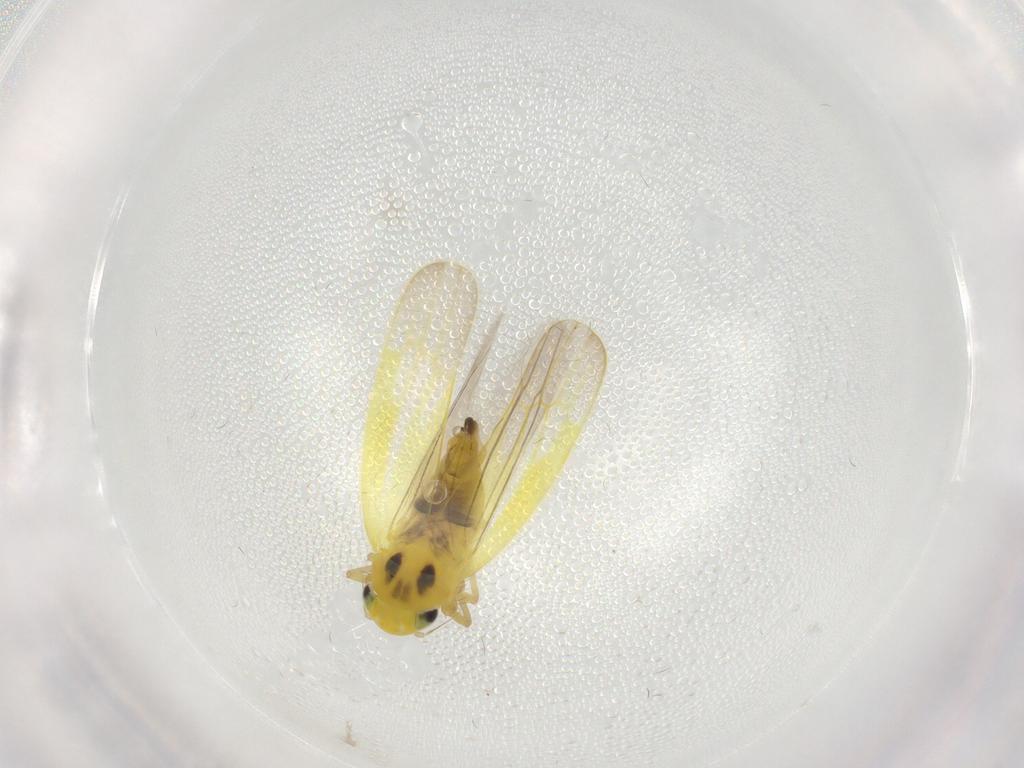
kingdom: Animalia
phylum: Arthropoda
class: Insecta
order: Hemiptera
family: Cicadellidae
